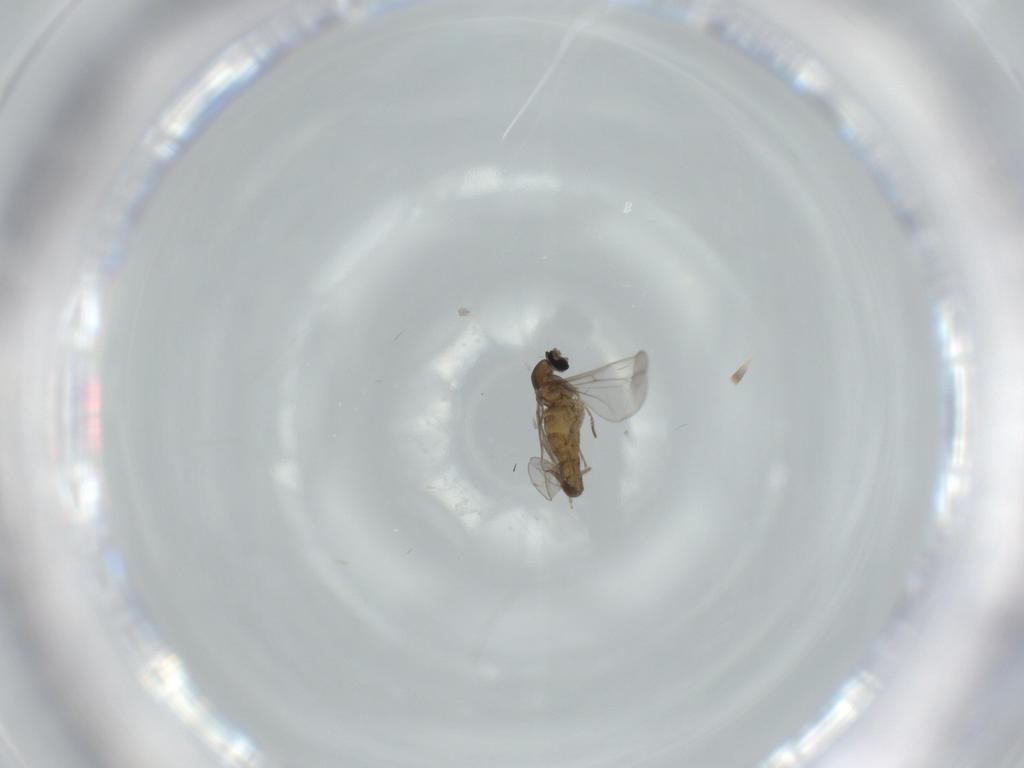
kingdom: Animalia
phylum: Arthropoda
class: Insecta
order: Diptera
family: Cecidomyiidae
